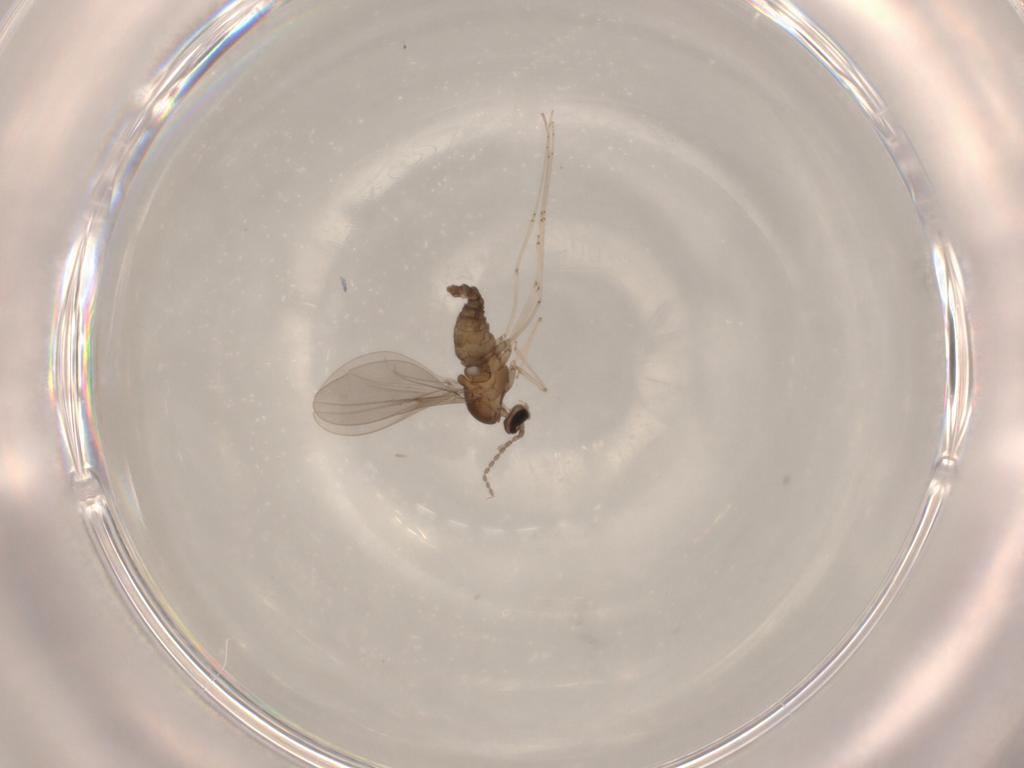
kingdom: Animalia
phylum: Arthropoda
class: Insecta
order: Diptera
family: Cecidomyiidae
